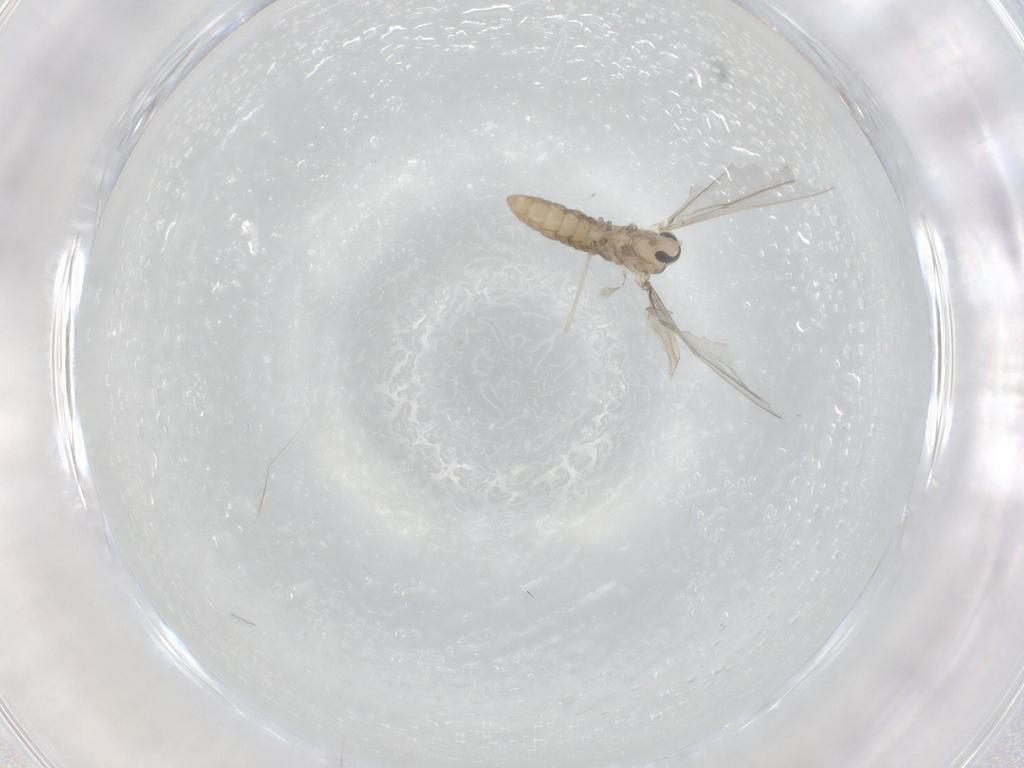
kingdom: Animalia
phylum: Arthropoda
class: Insecta
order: Diptera
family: Cecidomyiidae
